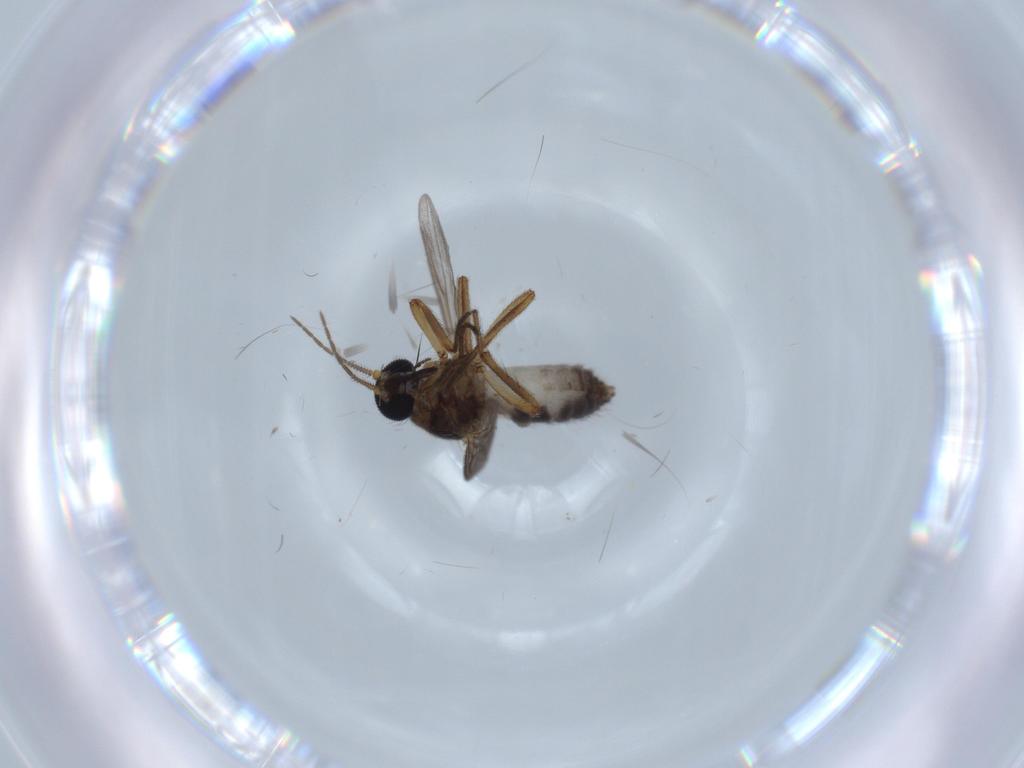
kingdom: Animalia
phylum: Arthropoda
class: Insecta
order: Diptera
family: Ceratopogonidae
